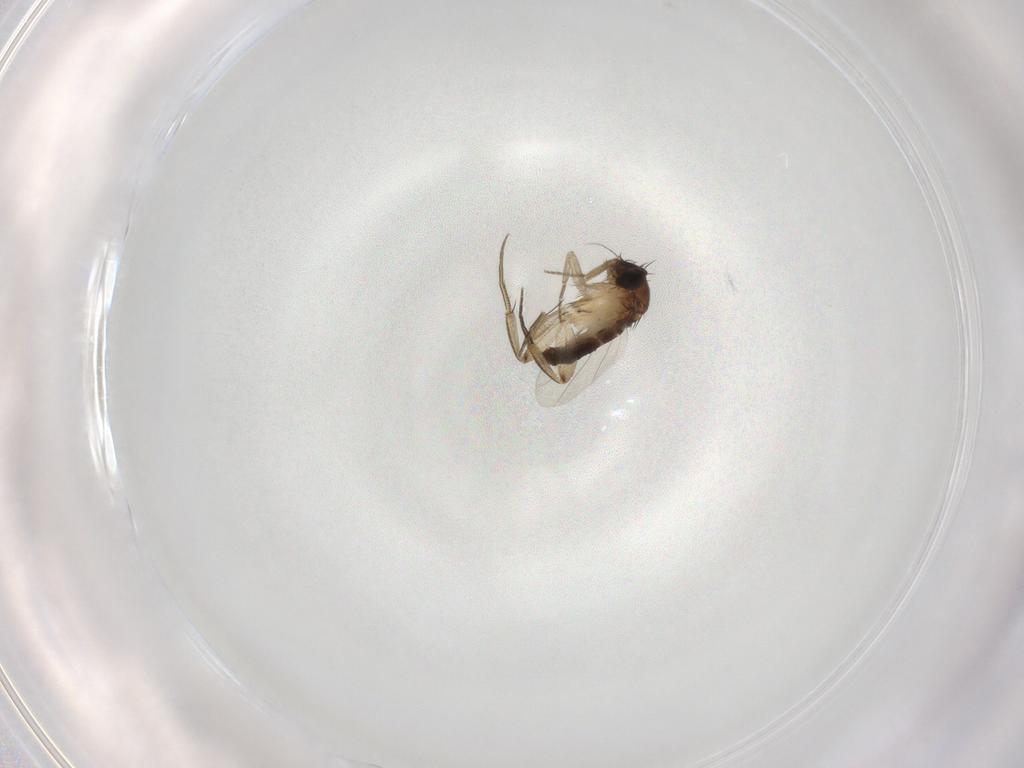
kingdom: Animalia
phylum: Arthropoda
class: Insecta
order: Diptera
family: Phoridae
